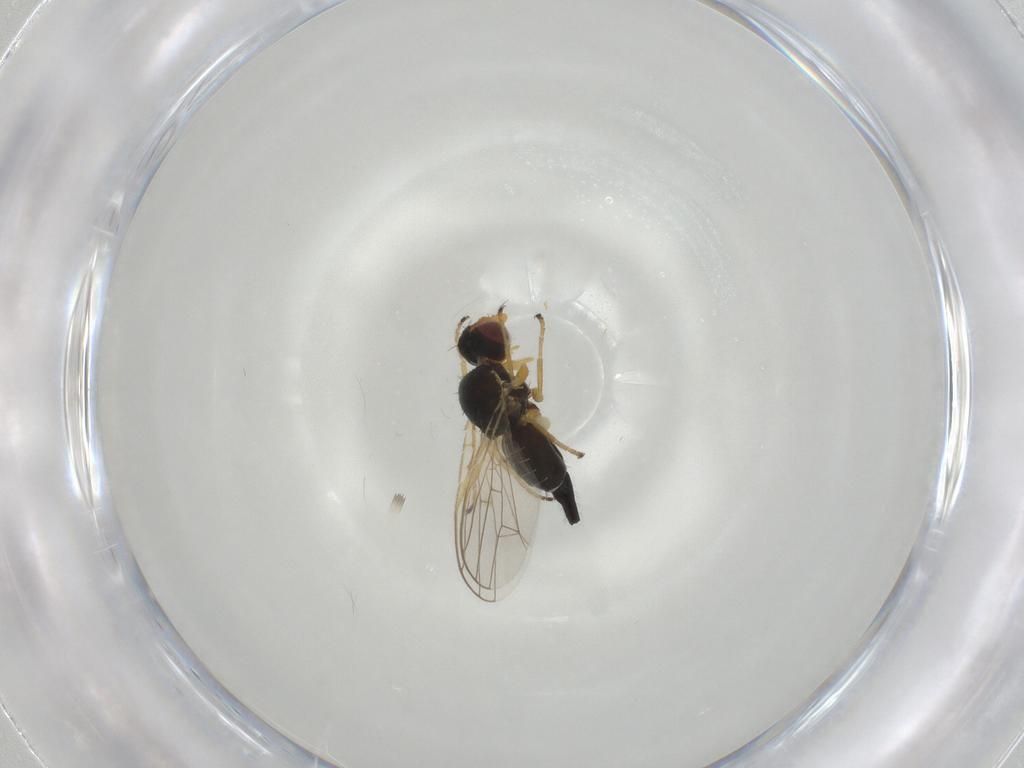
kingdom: Animalia
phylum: Arthropoda
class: Insecta
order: Diptera
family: Tephritidae
